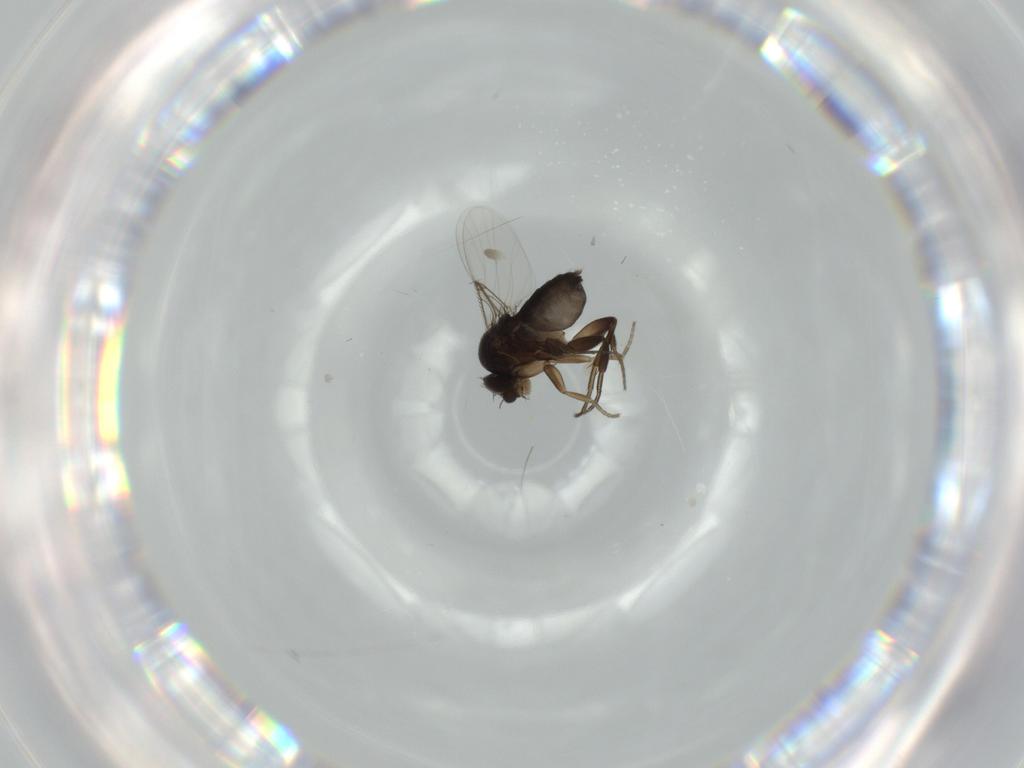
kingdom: Animalia
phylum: Arthropoda
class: Insecta
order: Diptera
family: Phoridae
